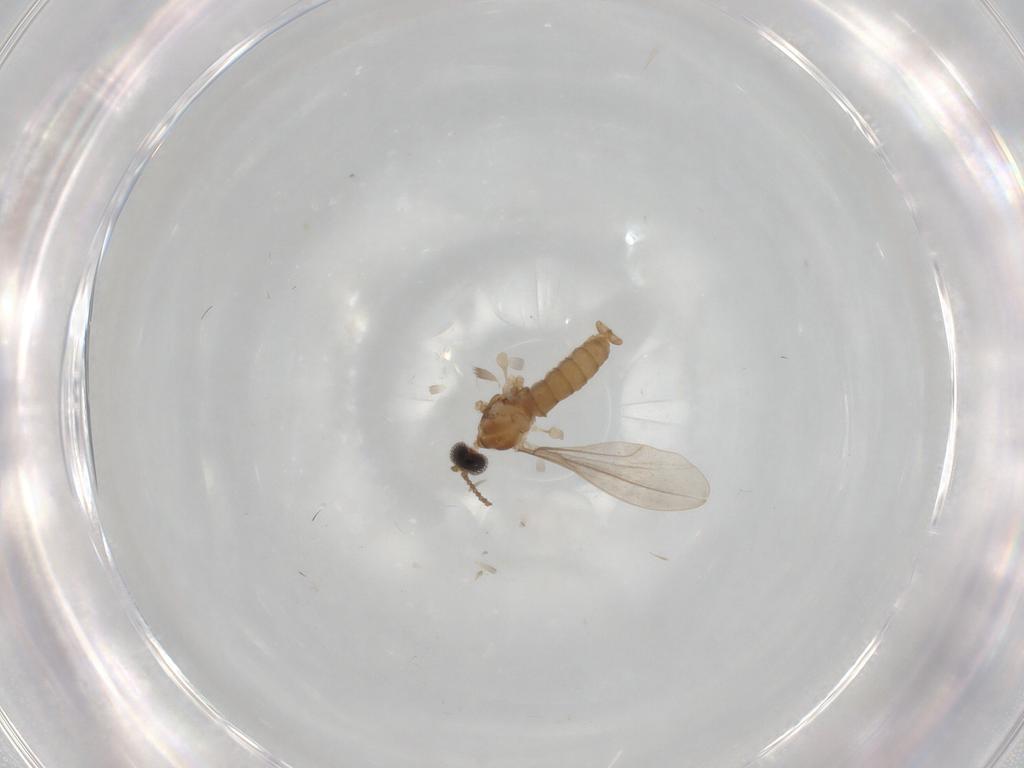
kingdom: Animalia
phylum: Arthropoda
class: Insecta
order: Diptera
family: Cecidomyiidae
